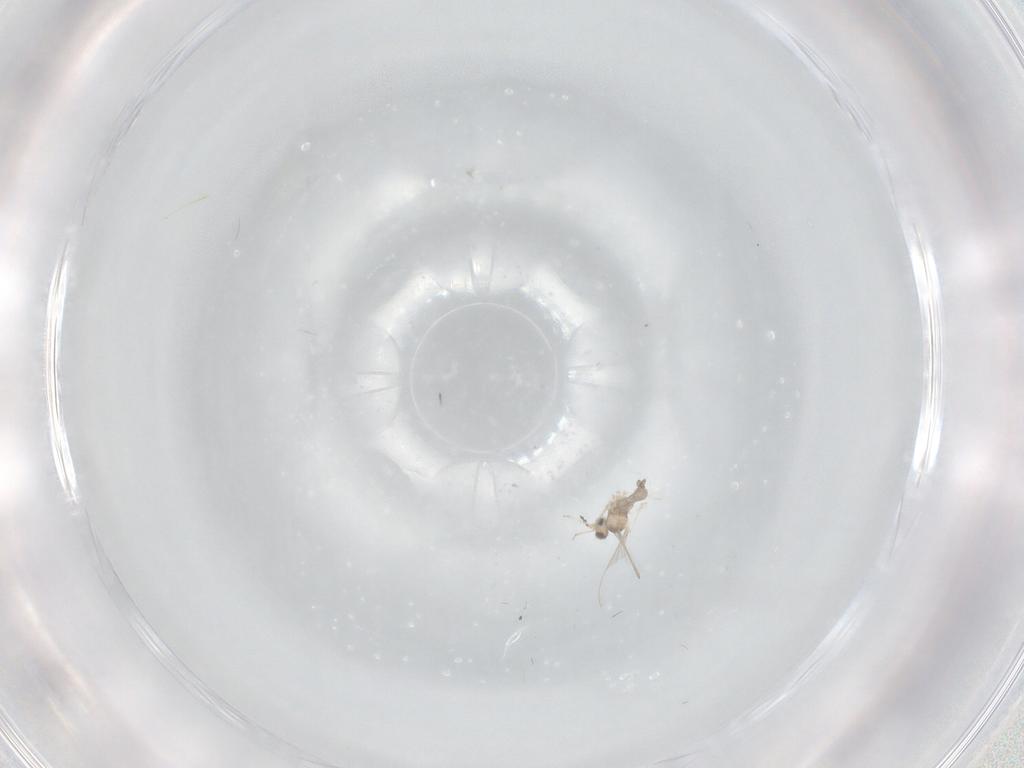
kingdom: Animalia
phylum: Arthropoda
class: Insecta
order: Diptera
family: Cecidomyiidae
